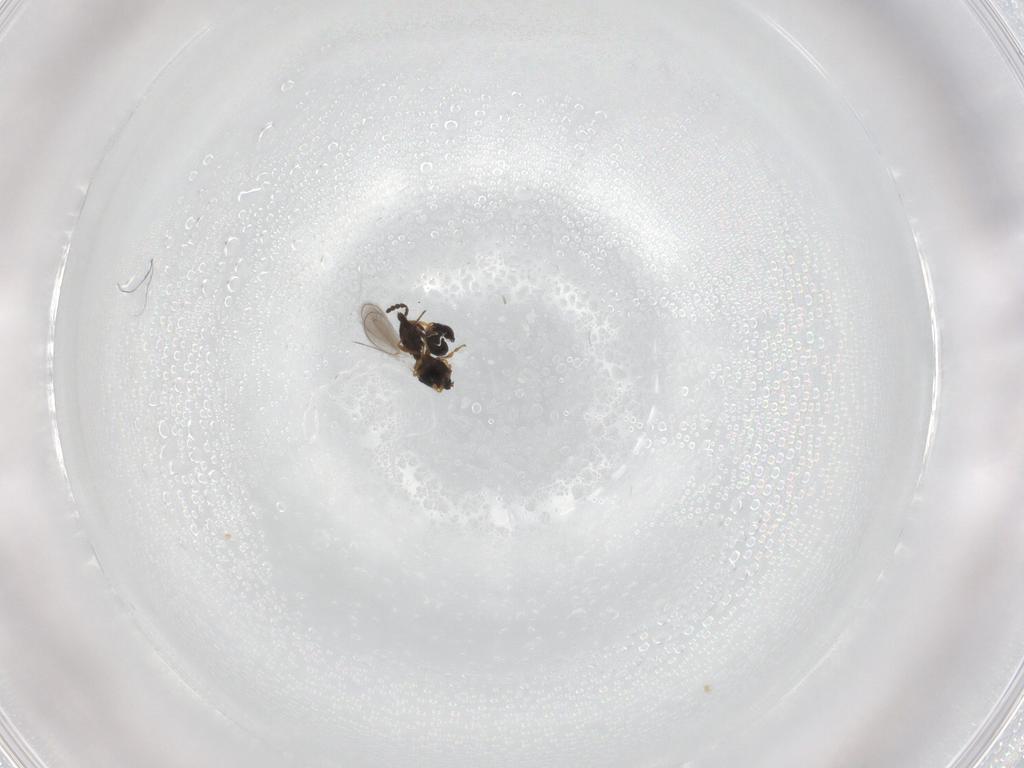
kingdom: Animalia
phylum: Arthropoda
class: Insecta
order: Hymenoptera
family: Platygastridae
